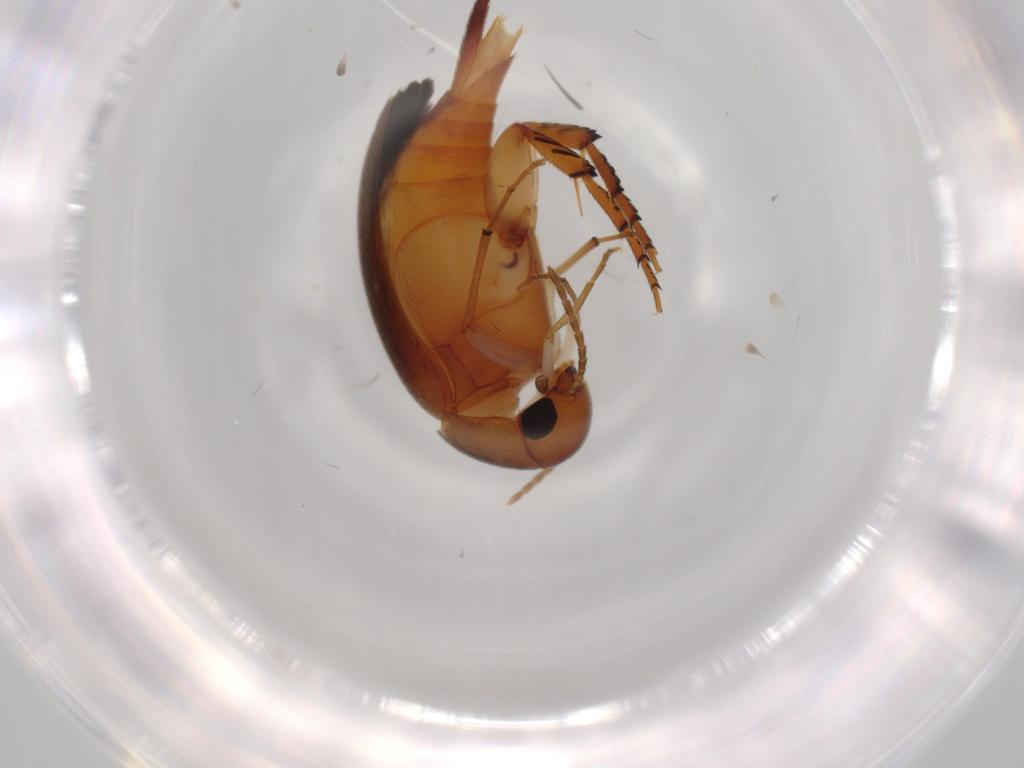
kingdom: Animalia
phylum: Arthropoda
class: Insecta
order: Coleoptera
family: Mordellidae
